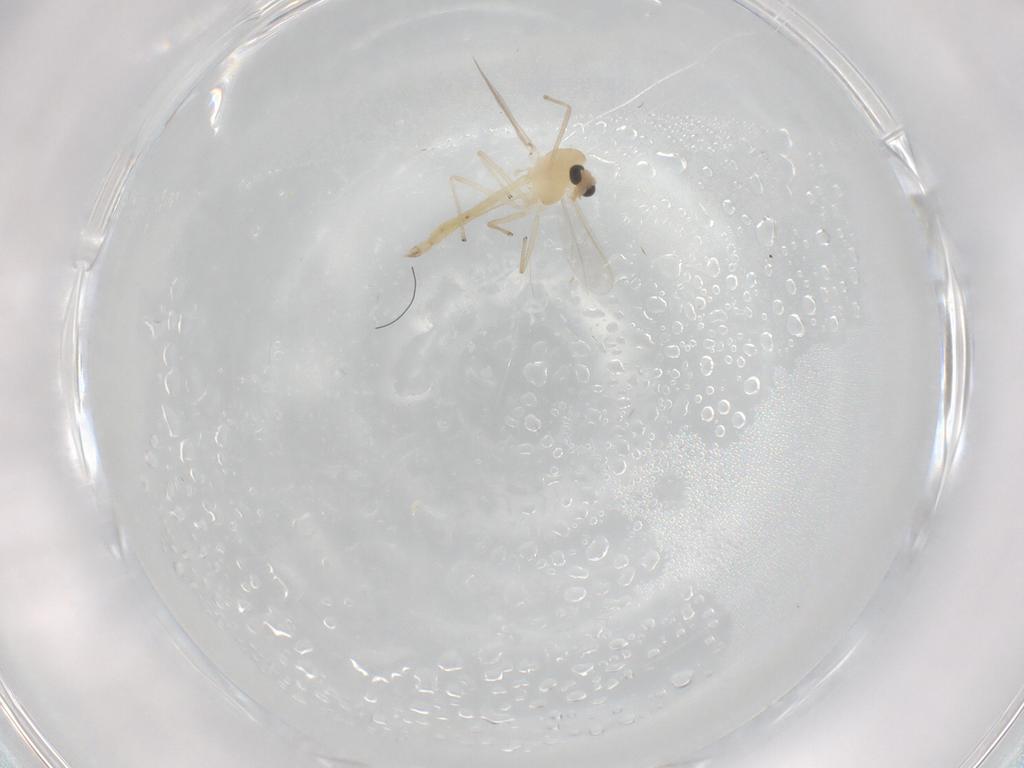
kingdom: Animalia
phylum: Arthropoda
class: Insecta
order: Diptera
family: Chironomidae
